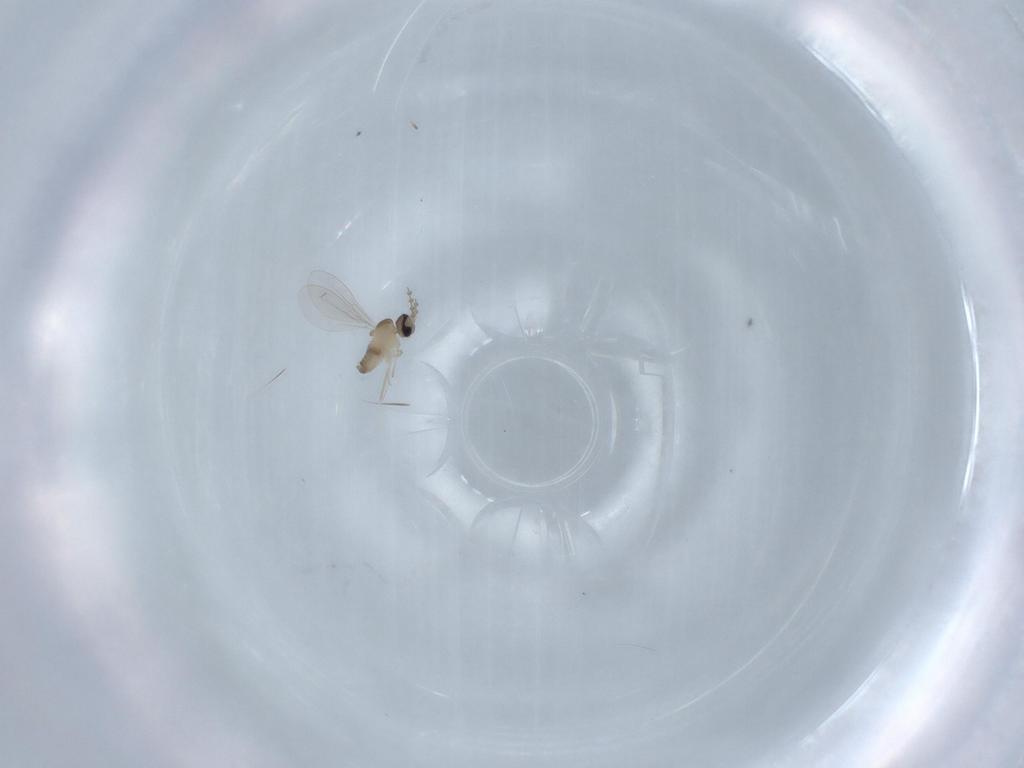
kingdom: Animalia
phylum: Arthropoda
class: Insecta
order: Diptera
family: Cecidomyiidae
